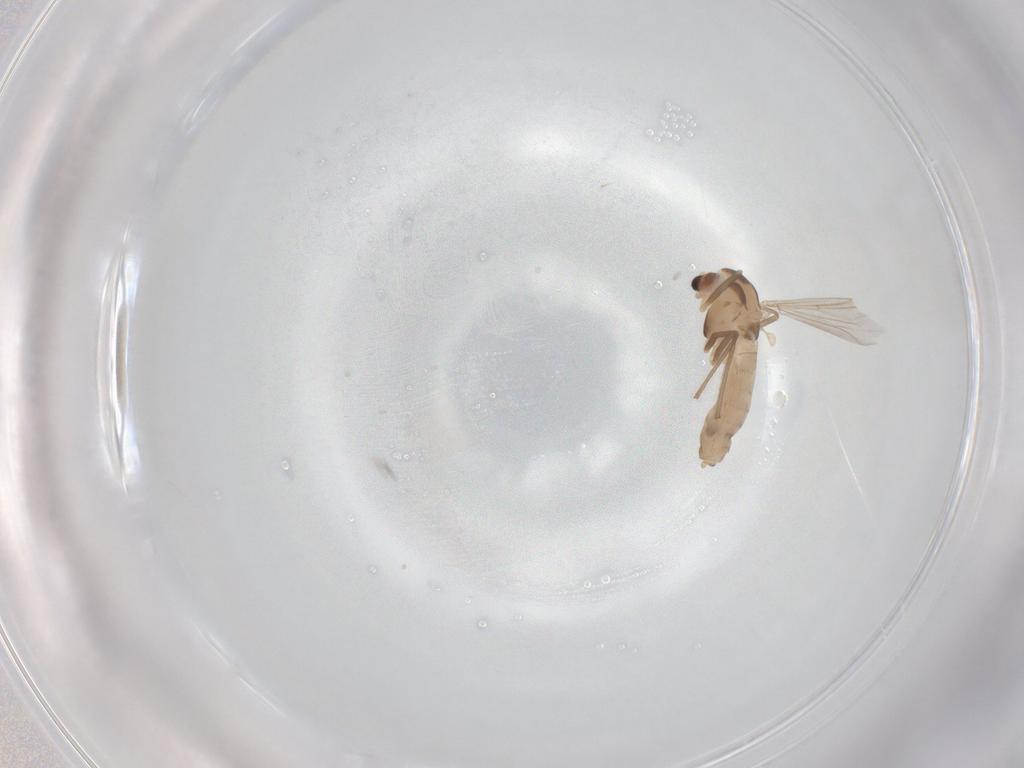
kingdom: Animalia
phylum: Arthropoda
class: Insecta
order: Diptera
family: Chironomidae
